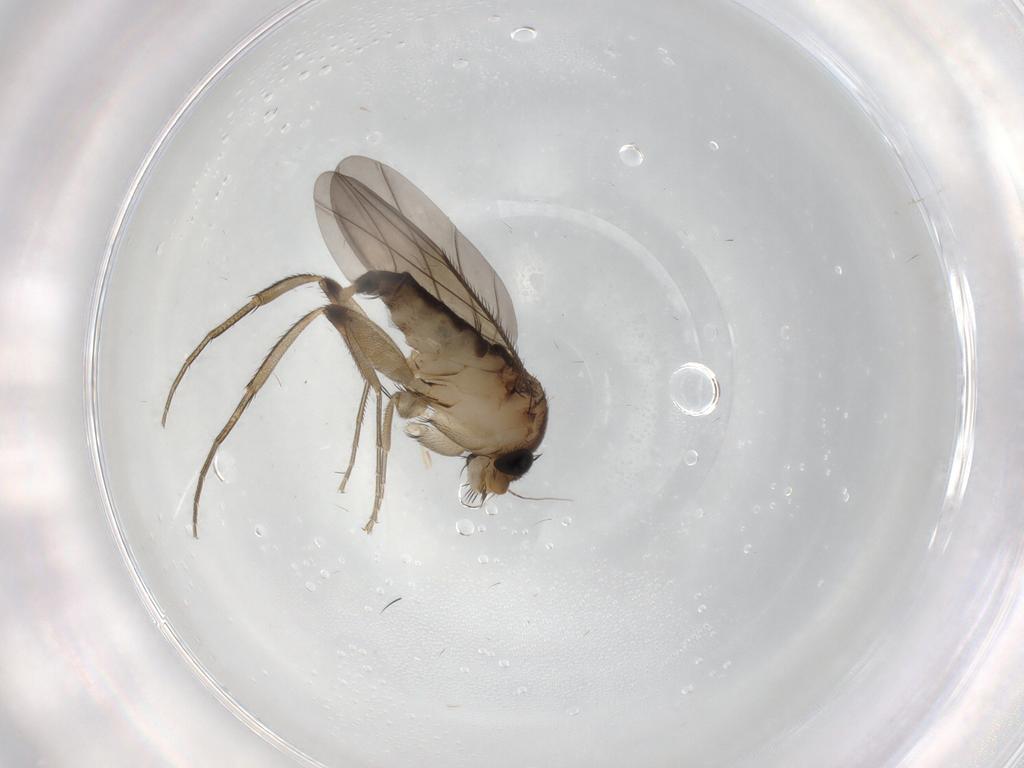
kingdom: Animalia
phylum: Arthropoda
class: Insecta
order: Diptera
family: Phoridae
